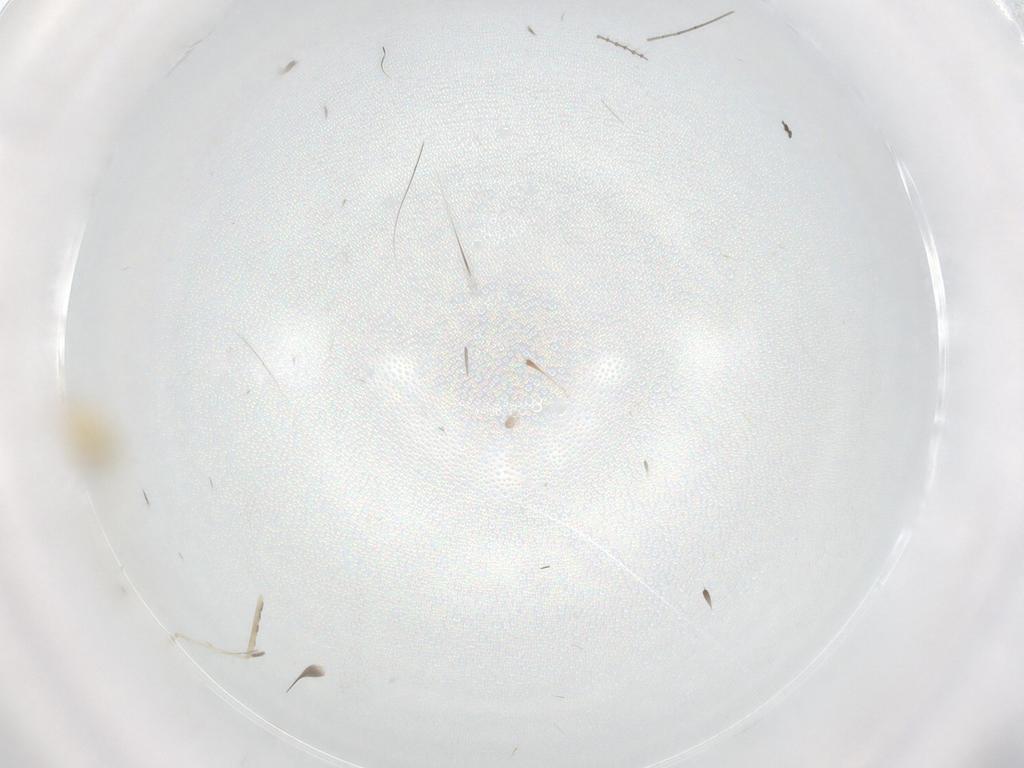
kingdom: Animalia
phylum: Arthropoda
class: Insecta
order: Diptera
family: Cecidomyiidae
